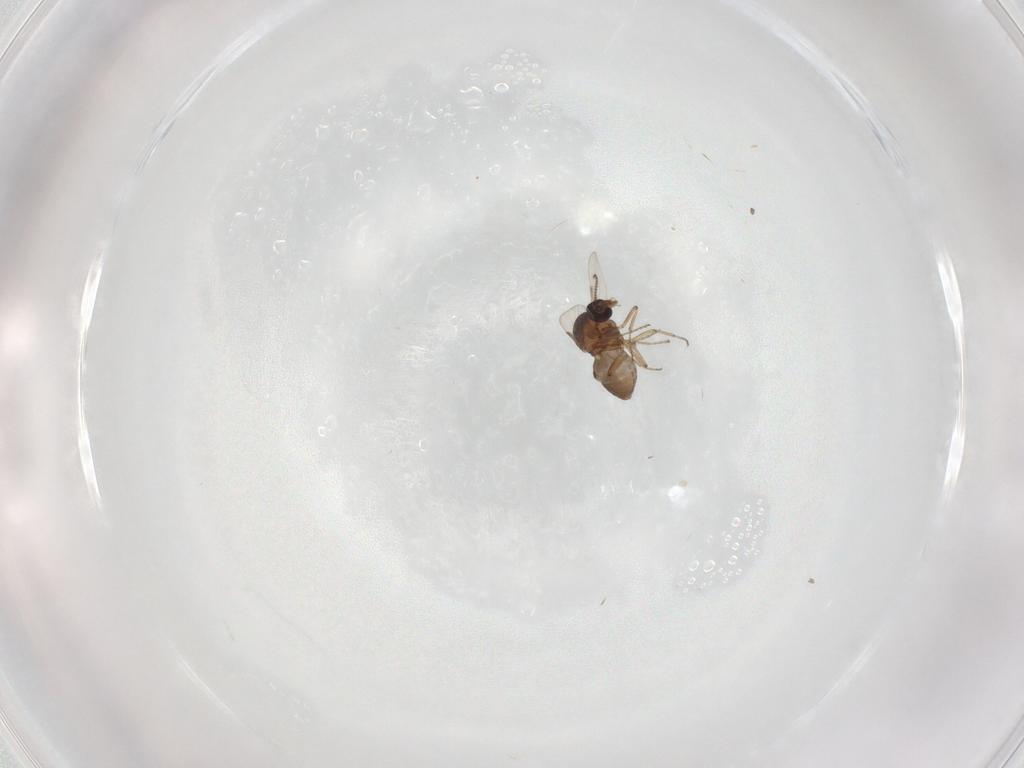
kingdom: Animalia
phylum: Arthropoda
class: Insecta
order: Diptera
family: Ceratopogonidae
